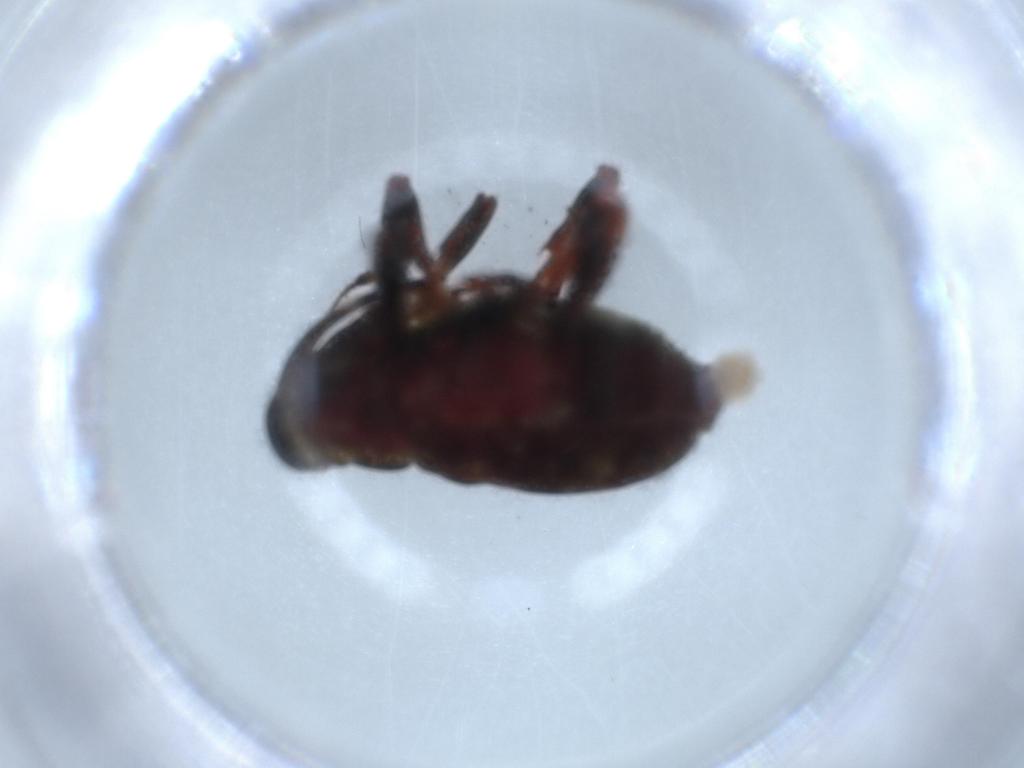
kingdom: Animalia
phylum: Arthropoda
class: Insecta
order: Coleoptera
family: Curculionidae
